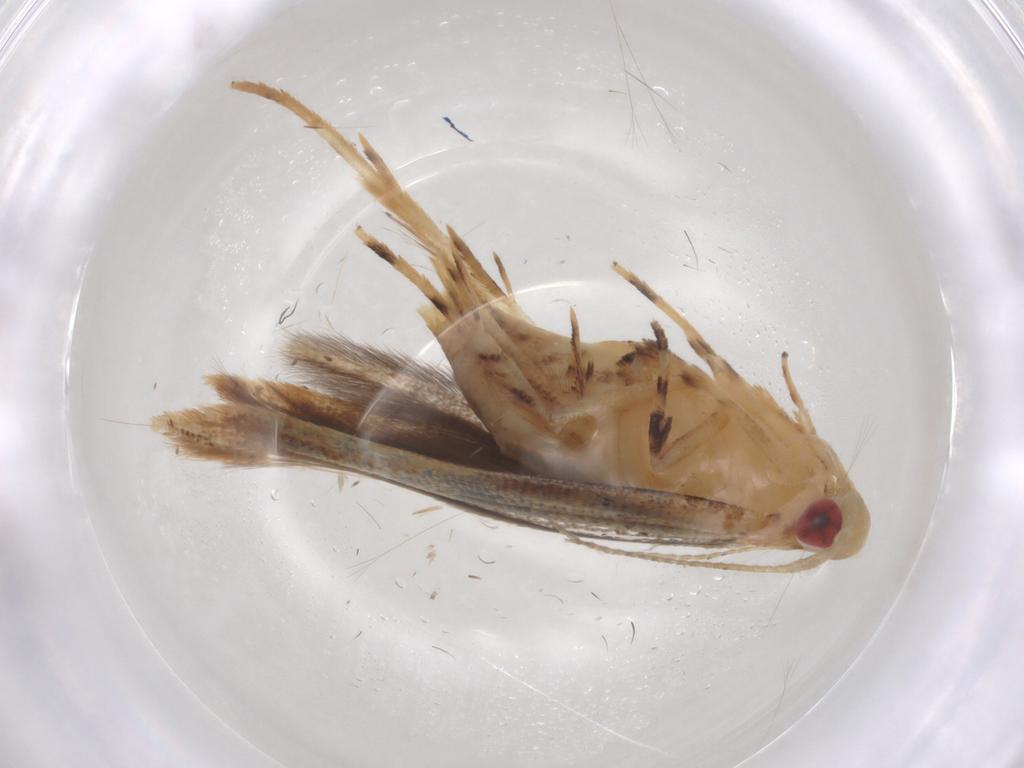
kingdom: Animalia
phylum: Arthropoda
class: Insecta
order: Lepidoptera
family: Cosmopterigidae
